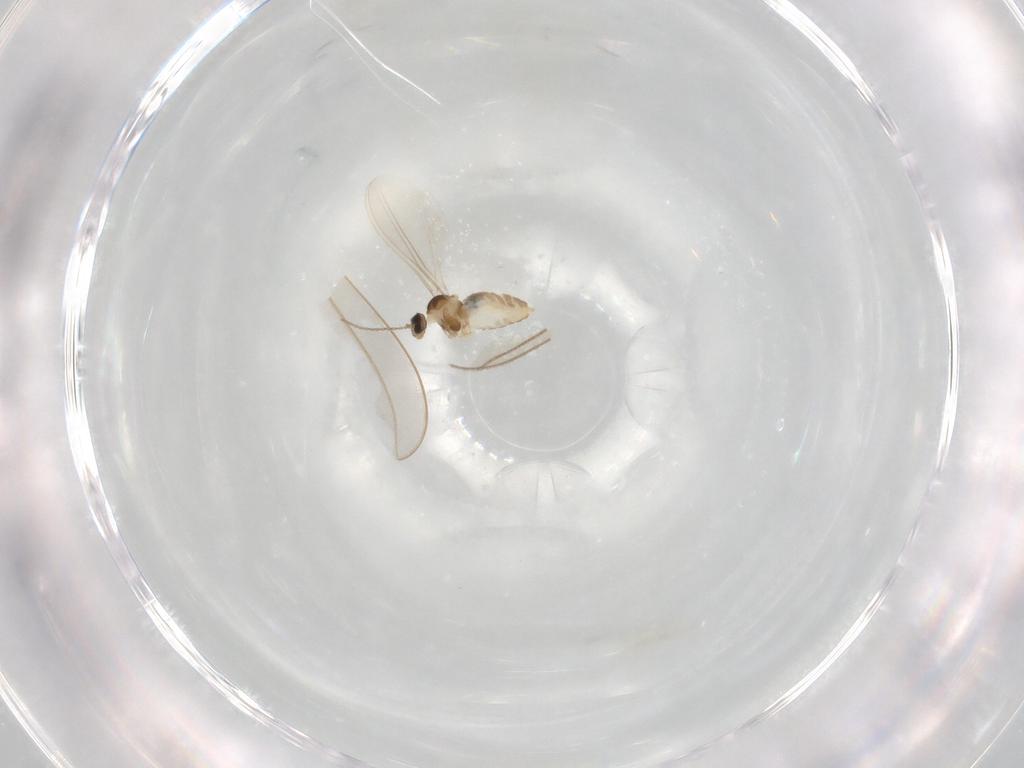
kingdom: Animalia
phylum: Arthropoda
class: Insecta
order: Diptera
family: Cecidomyiidae
